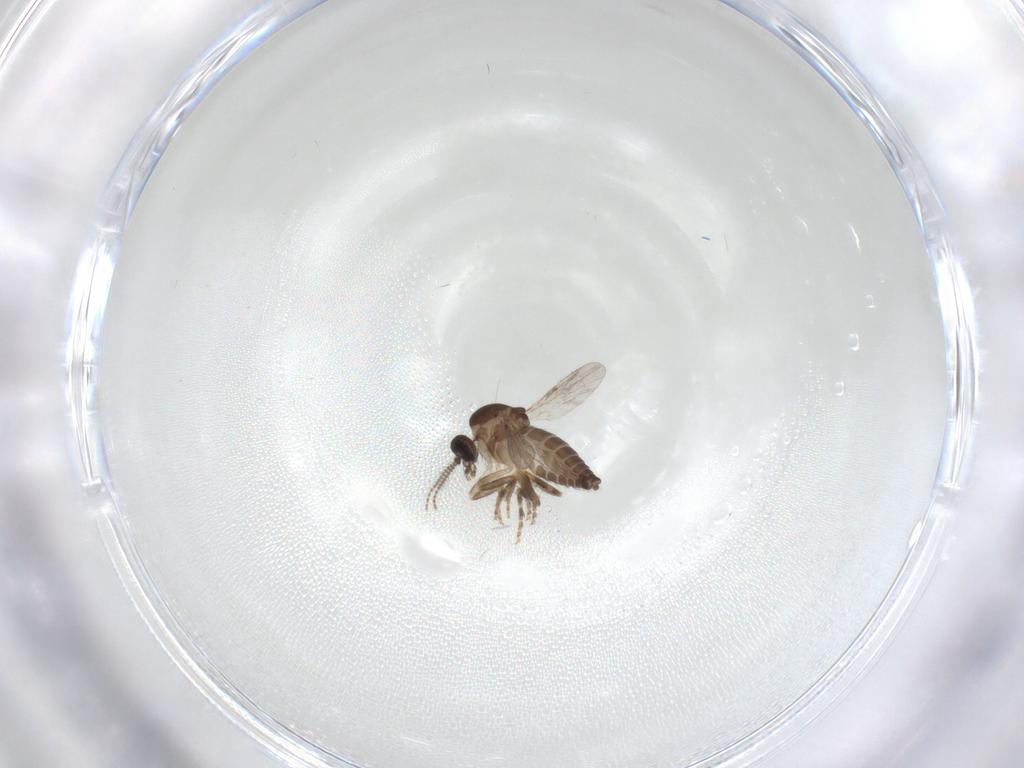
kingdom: Animalia
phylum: Arthropoda
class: Insecta
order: Diptera
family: Ceratopogonidae
